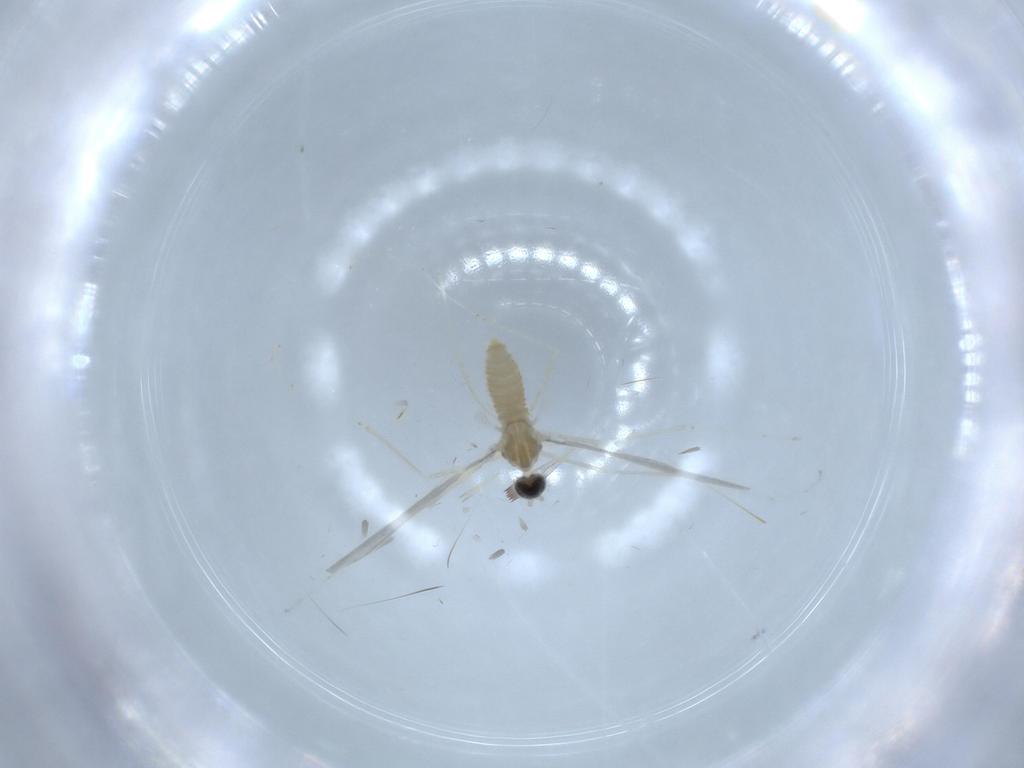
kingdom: Animalia
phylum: Arthropoda
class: Insecta
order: Diptera
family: Cecidomyiidae
